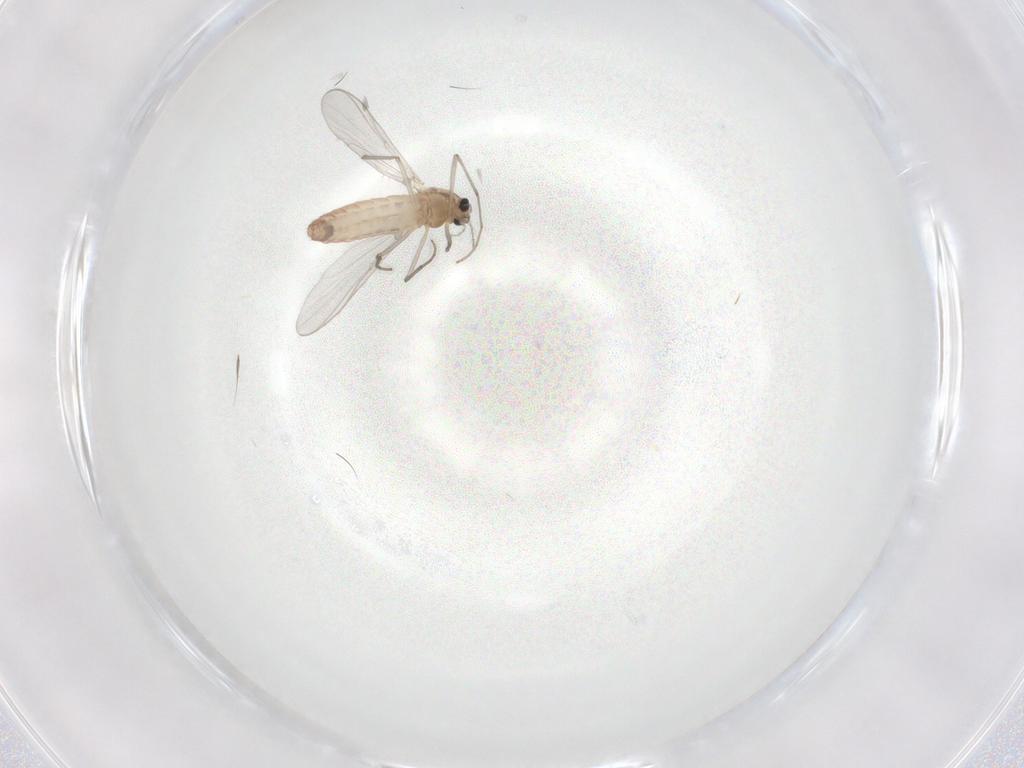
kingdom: Animalia
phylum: Arthropoda
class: Insecta
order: Diptera
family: Chironomidae
